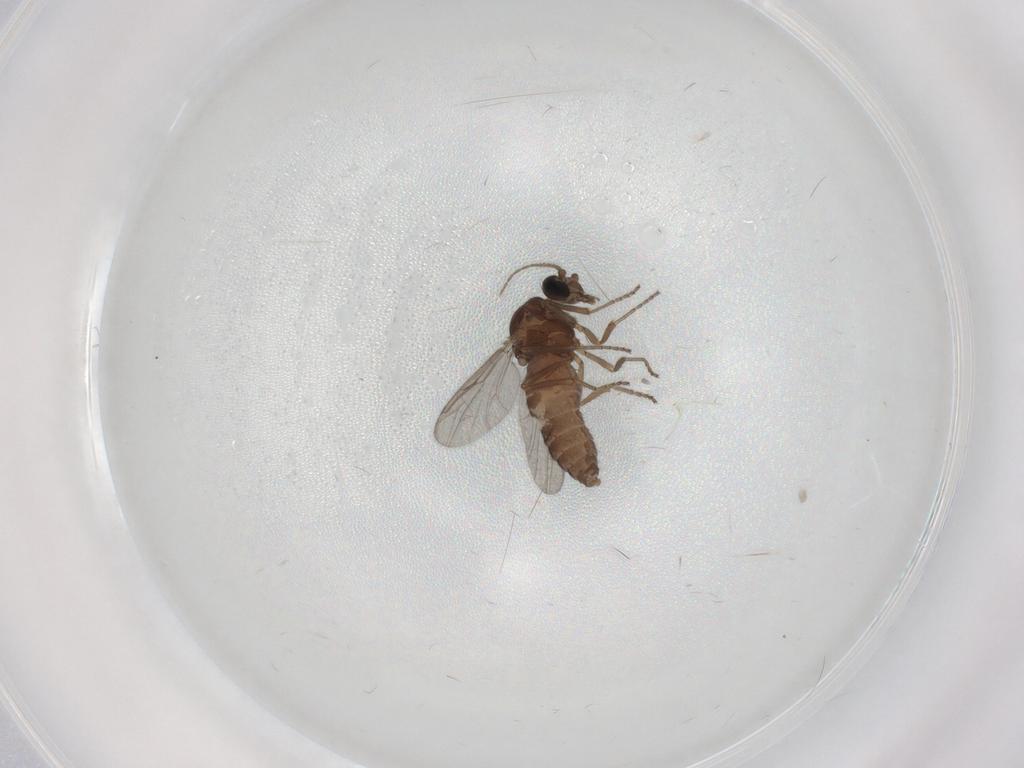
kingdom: Animalia
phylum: Arthropoda
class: Insecta
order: Diptera
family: Ceratopogonidae
